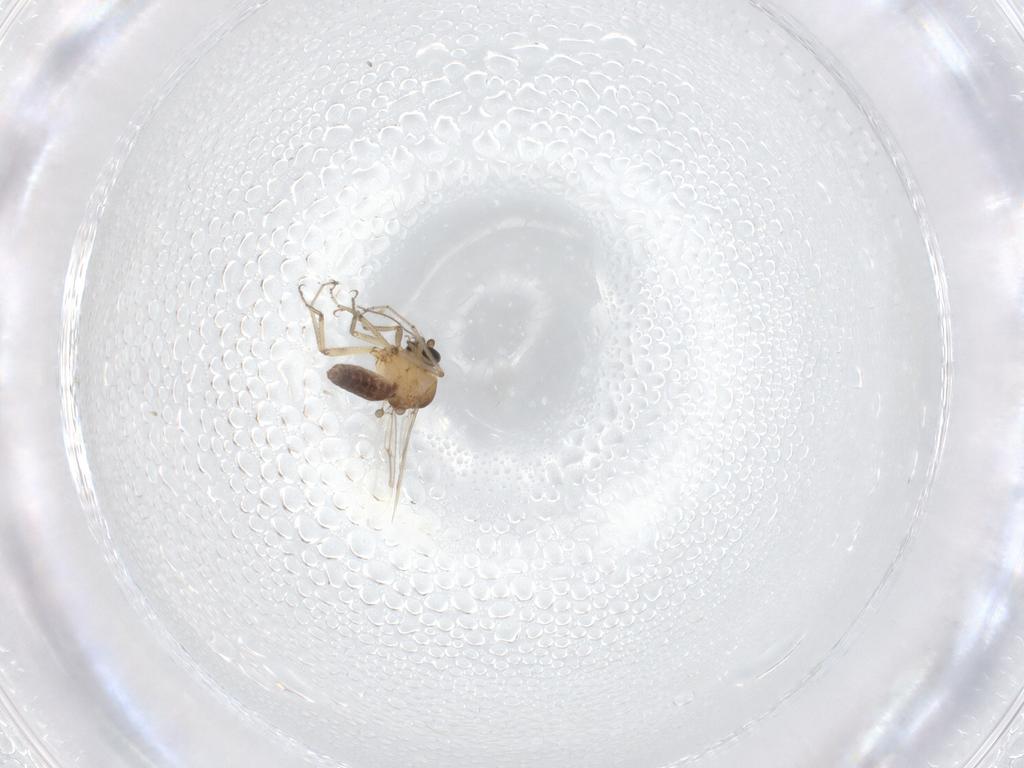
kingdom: Animalia
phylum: Arthropoda
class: Insecta
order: Diptera
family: Ceratopogonidae
